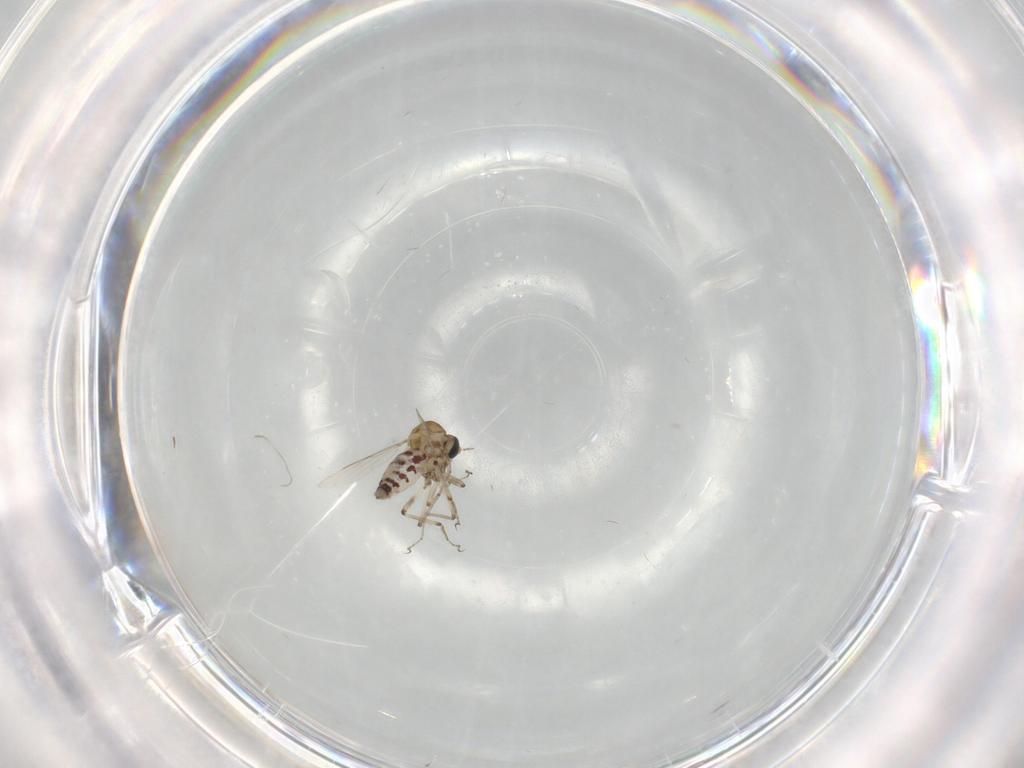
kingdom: Animalia
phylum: Arthropoda
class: Insecta
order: Diptera
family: Ceratopogonidae
